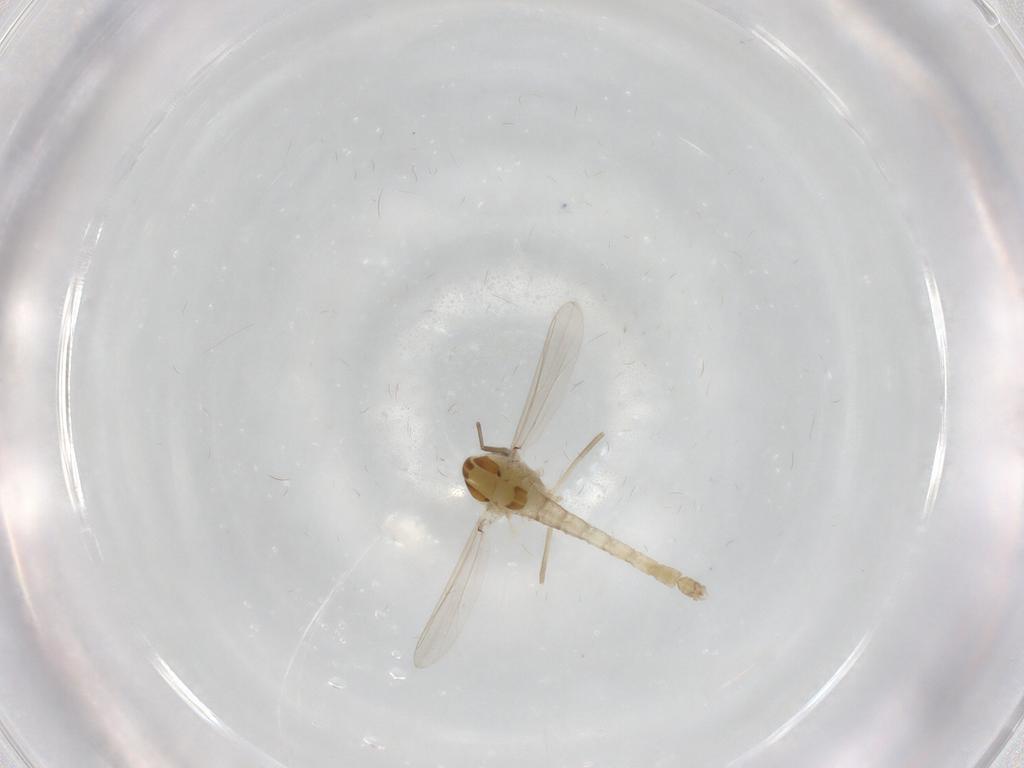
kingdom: Animalia
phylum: Arthropoda
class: Insecta
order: Diptera
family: Chironomidae
